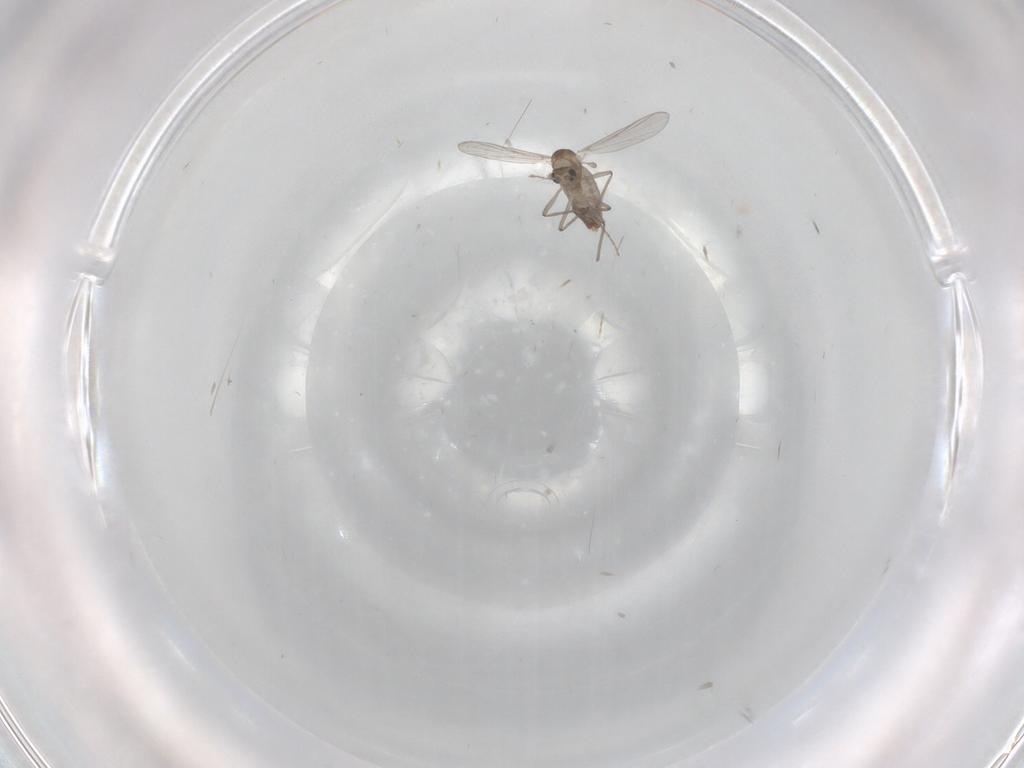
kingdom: Animalia
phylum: Arthropoda
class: Insecta
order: Diptera
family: Chironomidae
